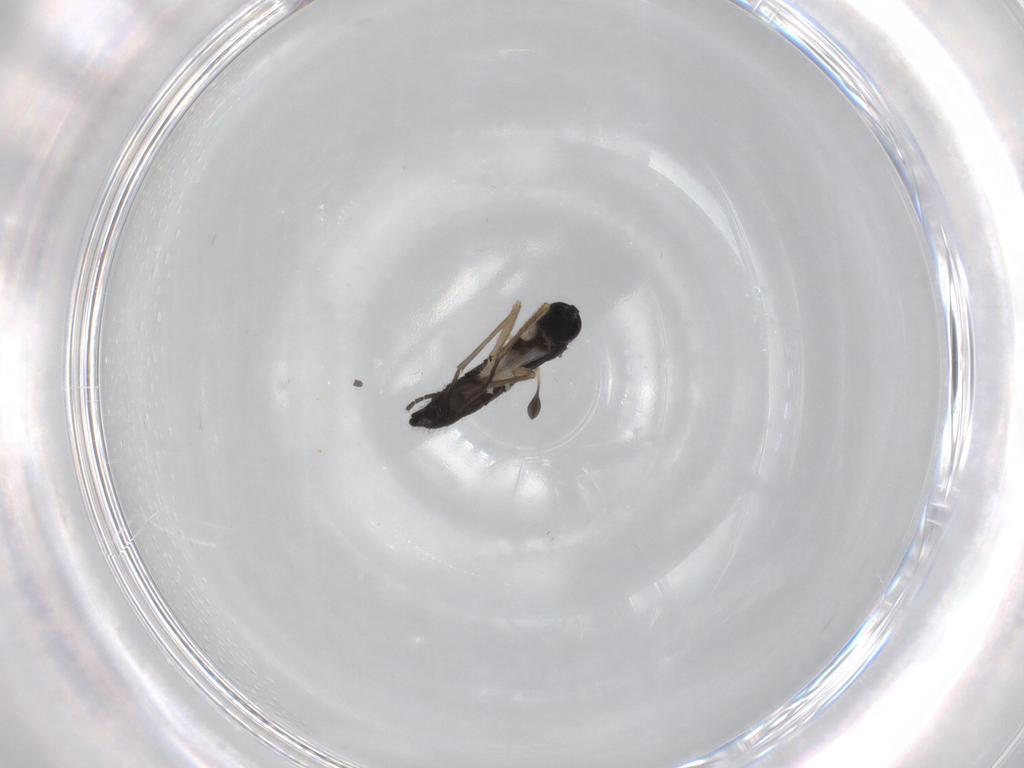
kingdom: Animalia
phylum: Arthropoda
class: Insecta
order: Diptera
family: Sciaridae
